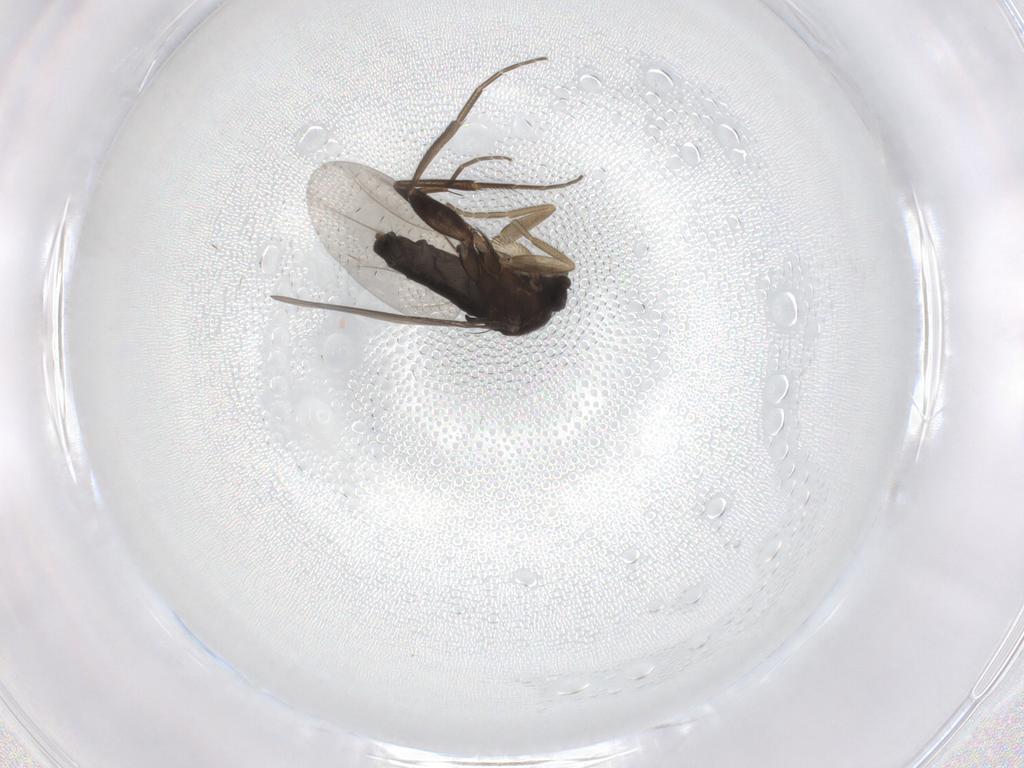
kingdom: Animalia
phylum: Arthropoda
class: Insecta
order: Diptera
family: Phoridae
